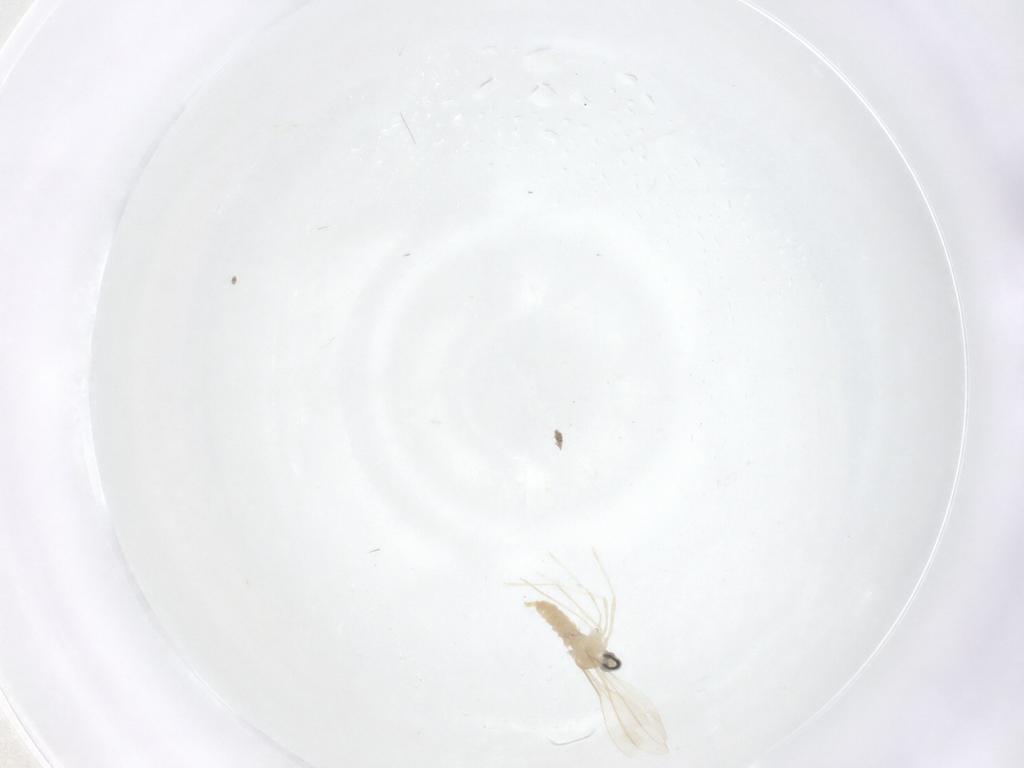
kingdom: Animalia
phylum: Arthropoda
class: Insecta
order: Diptera
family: Cecidomyiidae
